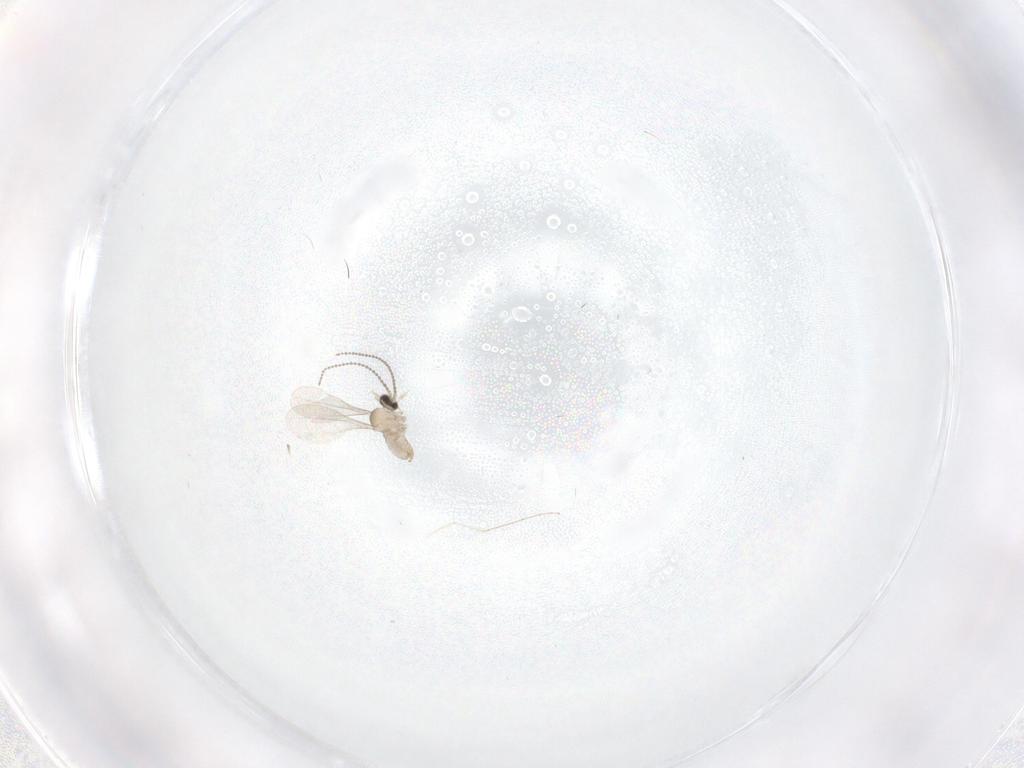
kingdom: Animalia
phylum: Arthropoda
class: Insecta
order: Diptera
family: Cecidomyiidae
